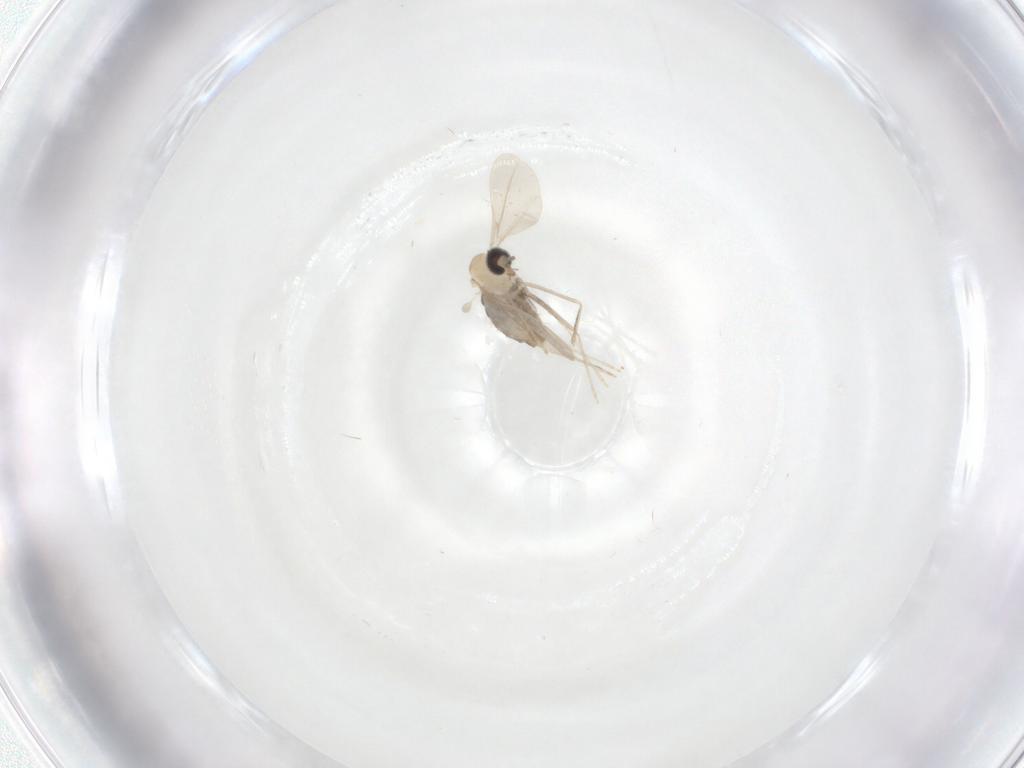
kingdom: Animalia
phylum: Arthropoda
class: Insecta
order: Diptera
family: Cecidomyiidae
